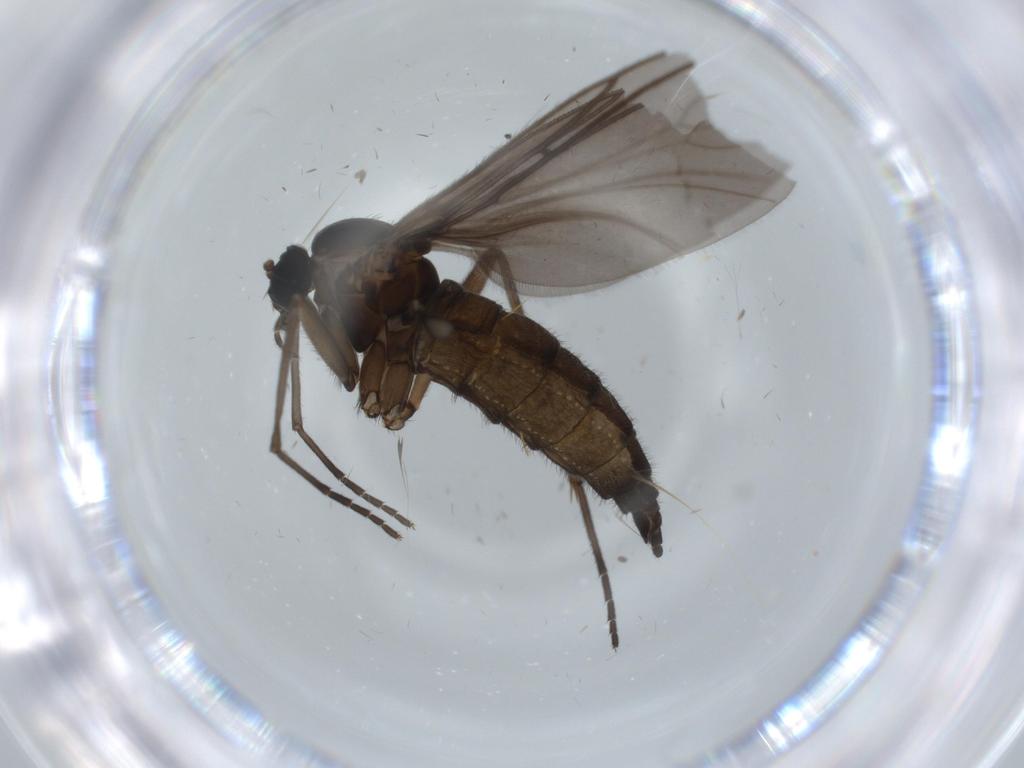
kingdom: Animalia
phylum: Arthropoda
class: Insecta
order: Diptera
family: Sciaridae
